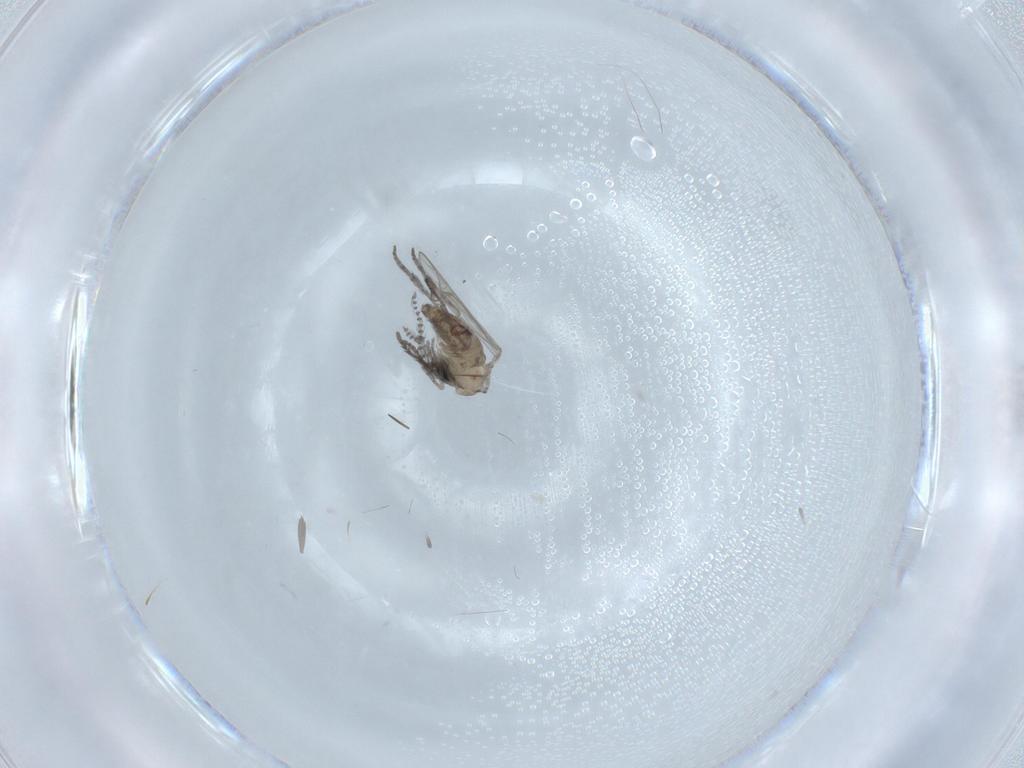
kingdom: Animalia
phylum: Arthropoda
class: Insecta
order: Diptera
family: Psychodidae
